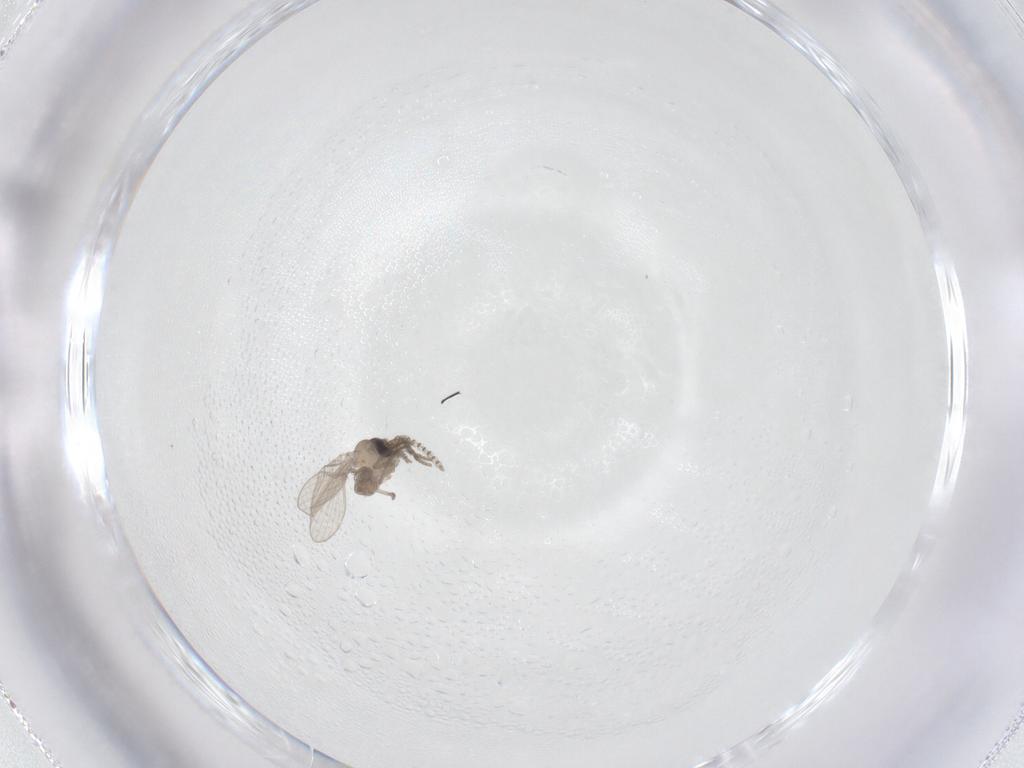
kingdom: Animalia
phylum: Arthropoda
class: Insecta
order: Diptera
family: Psychodidae
